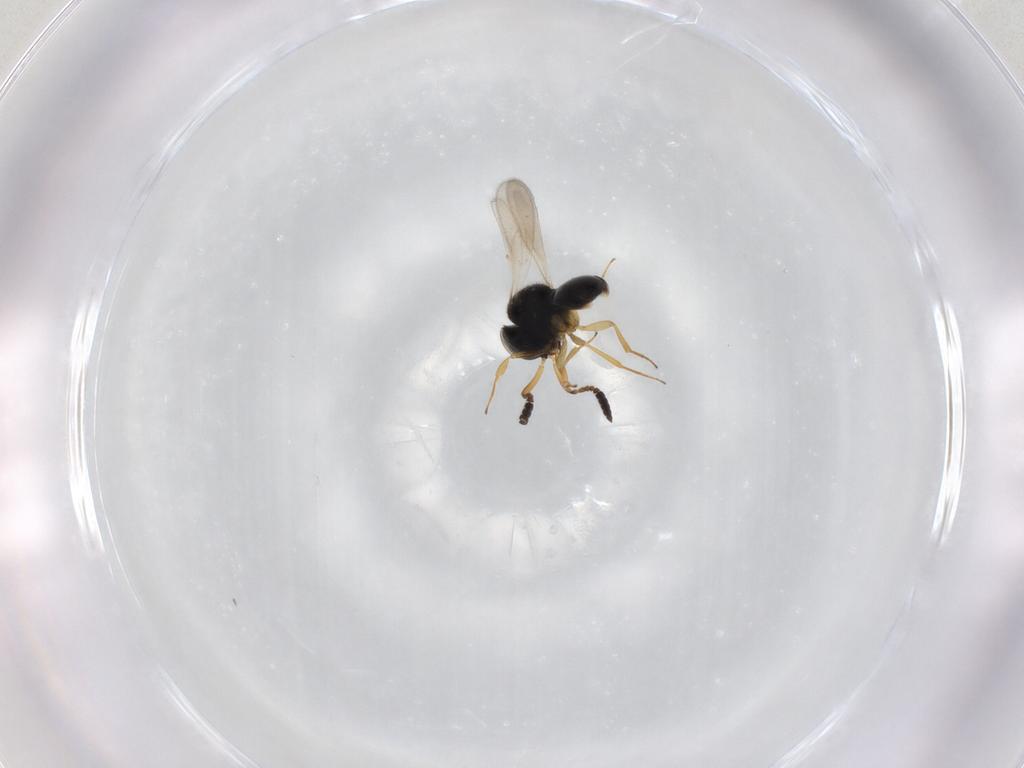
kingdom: Animalia
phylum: Arthropoda
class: Insecta
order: Hymenoptera
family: Scelionidae
